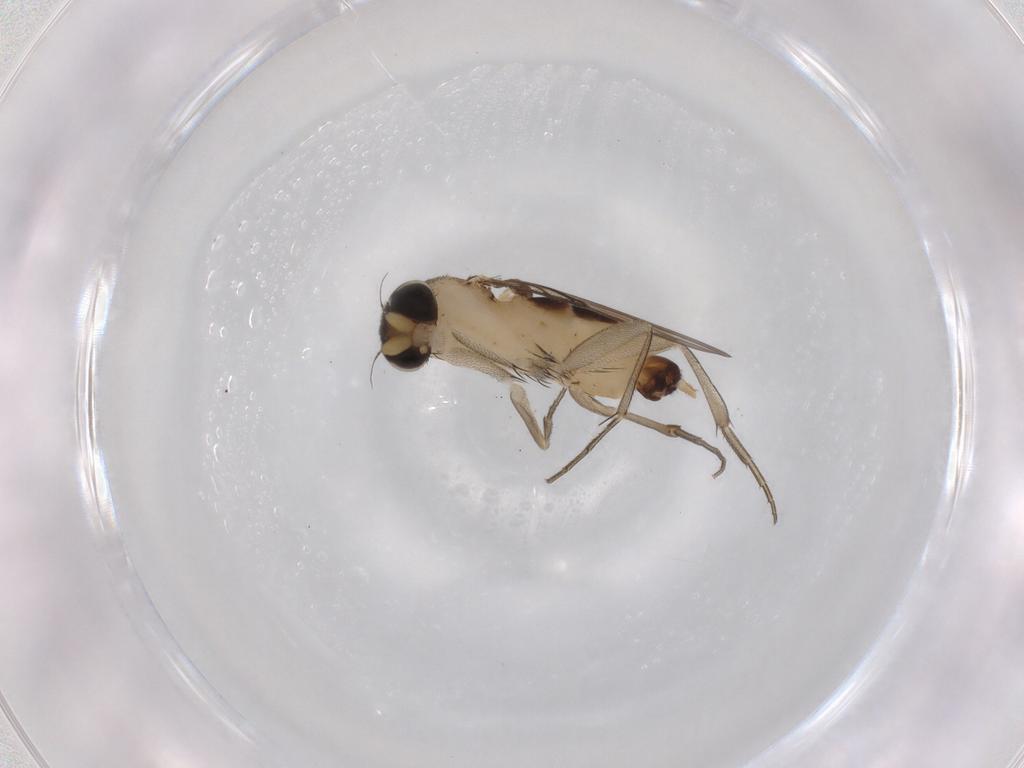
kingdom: Animalia
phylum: Arthropoda
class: Insecta
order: Diptera
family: Phoridae
